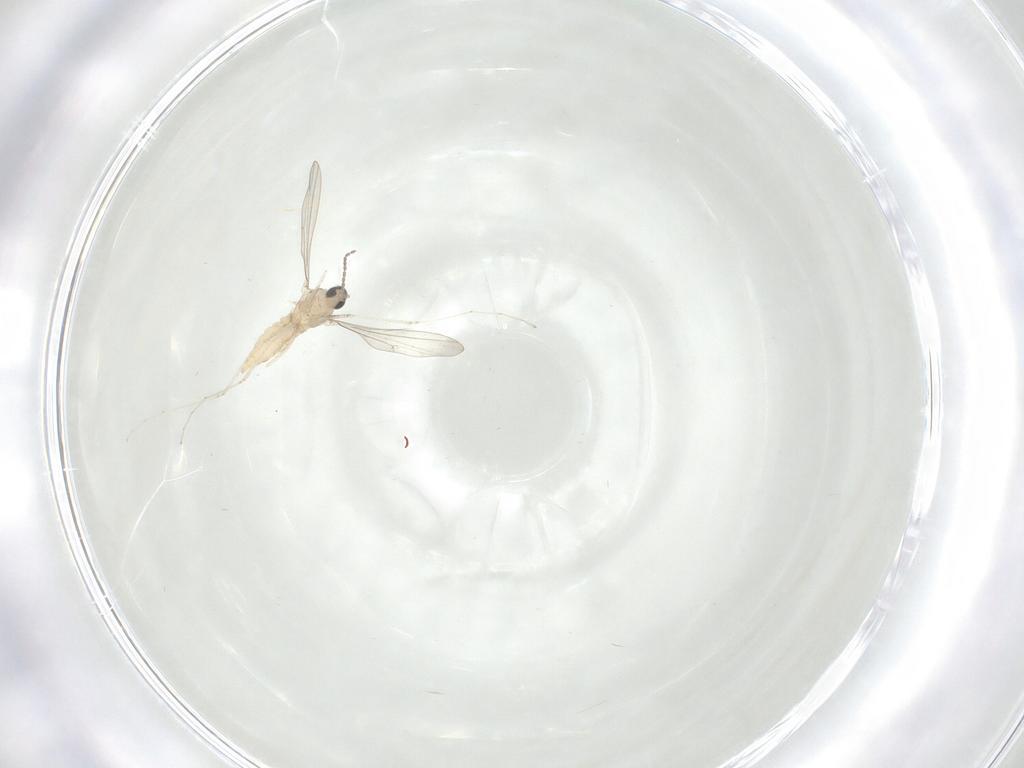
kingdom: Animalia
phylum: Arthropoda
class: Insecta
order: Diptera
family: Cecidomyiidae
